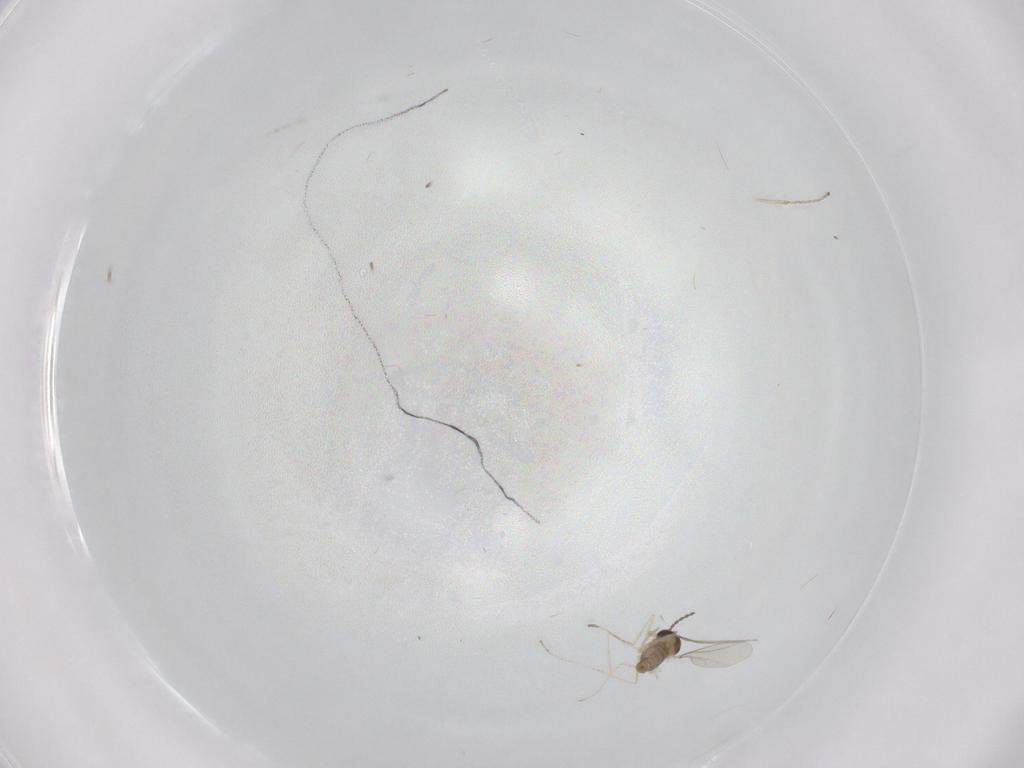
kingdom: Animalia
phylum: Arthropoda
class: Insecta
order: Diptera
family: Cecidomyiidae
